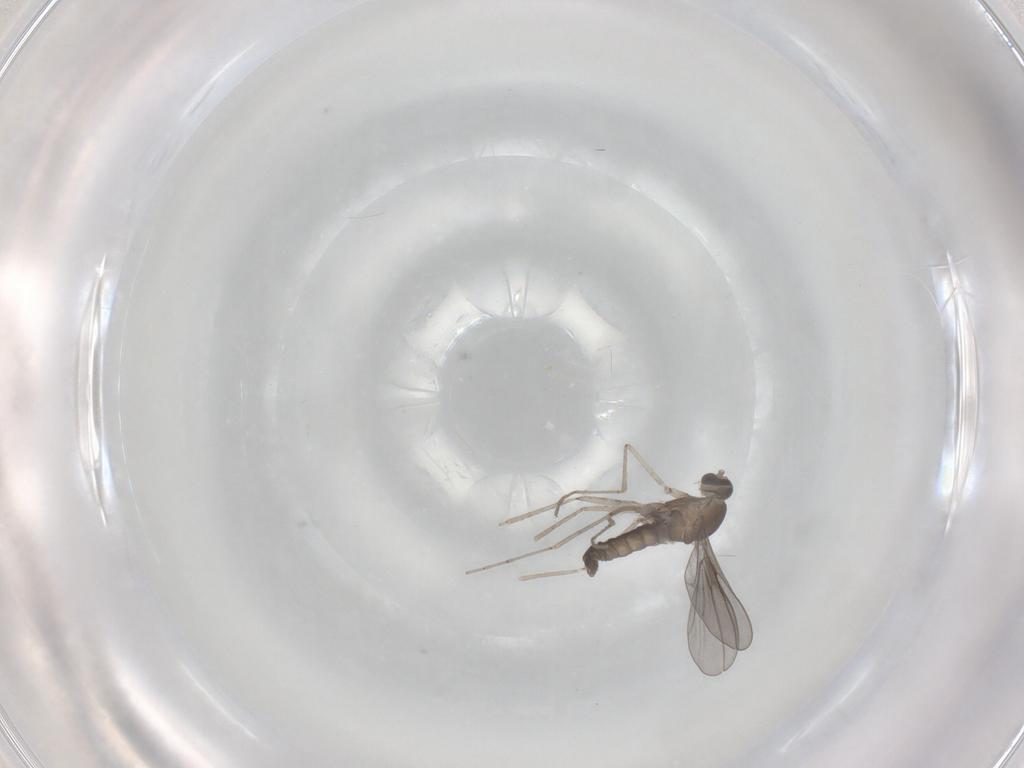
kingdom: Animalia
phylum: Arthropoda
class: Insecta
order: Diptera
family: Cecidomyiidae
